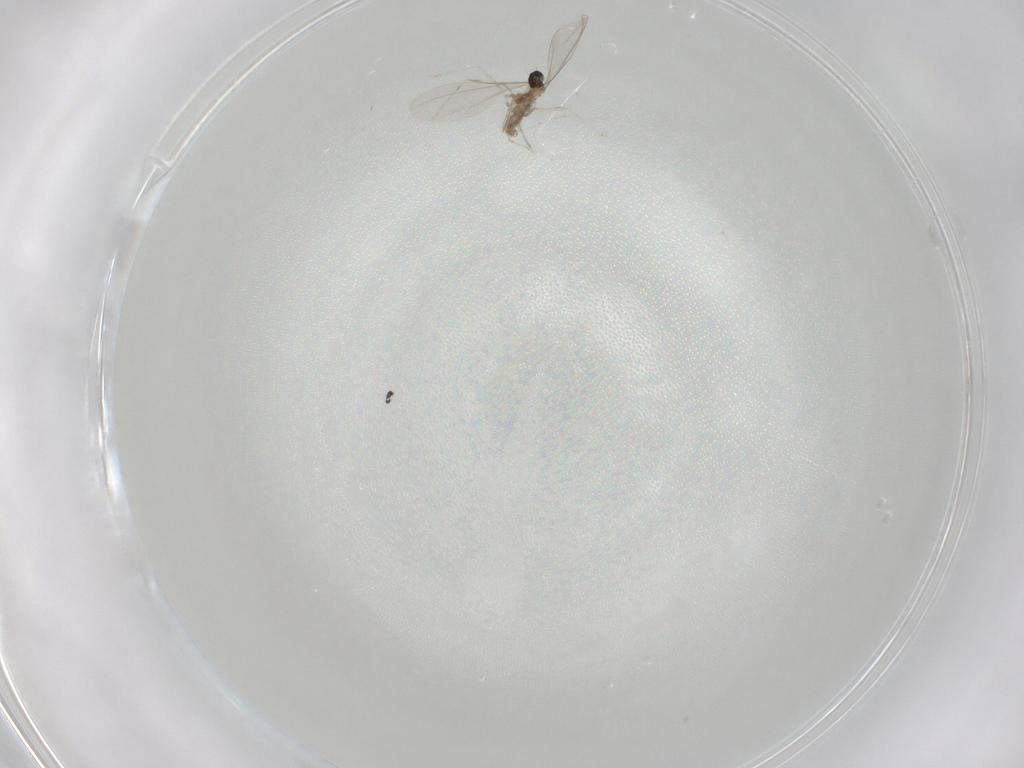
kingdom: Animalia
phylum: Arthropoda
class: Insecta
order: Diptera
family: Cecidomyiidae
